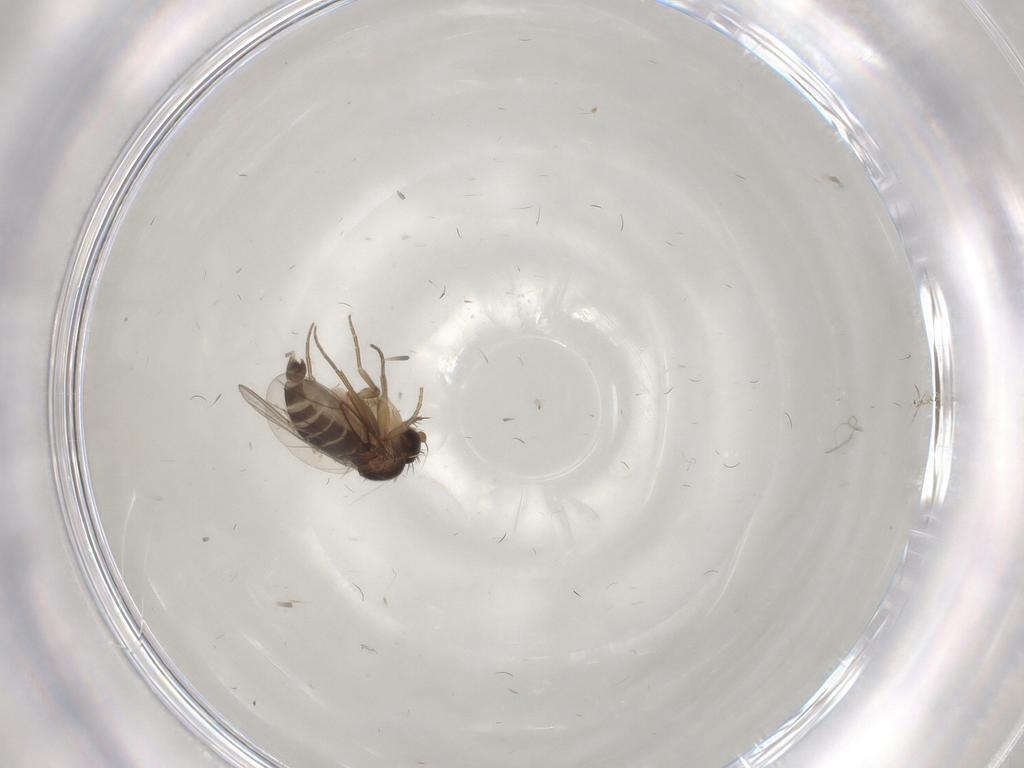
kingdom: Animalia
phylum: Arthropoda
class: Insecta
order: Diptera
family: Phoridae
